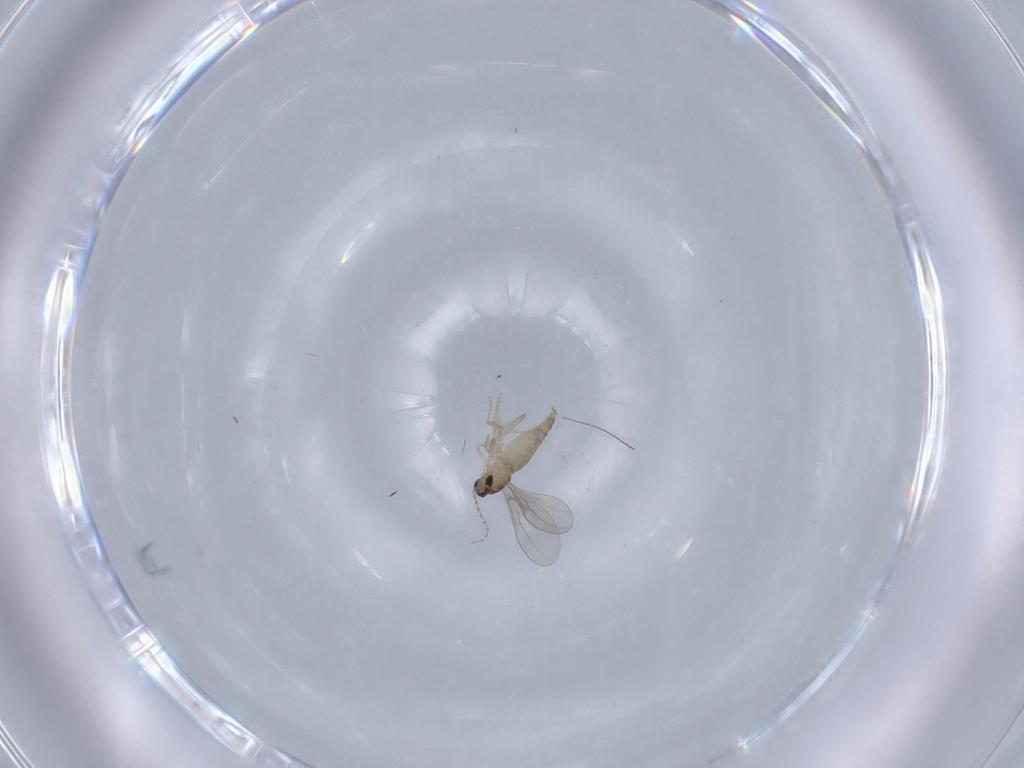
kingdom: Animalia
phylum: Arthropoda
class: Insecta
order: Diptera
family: Cecidomyiidae
